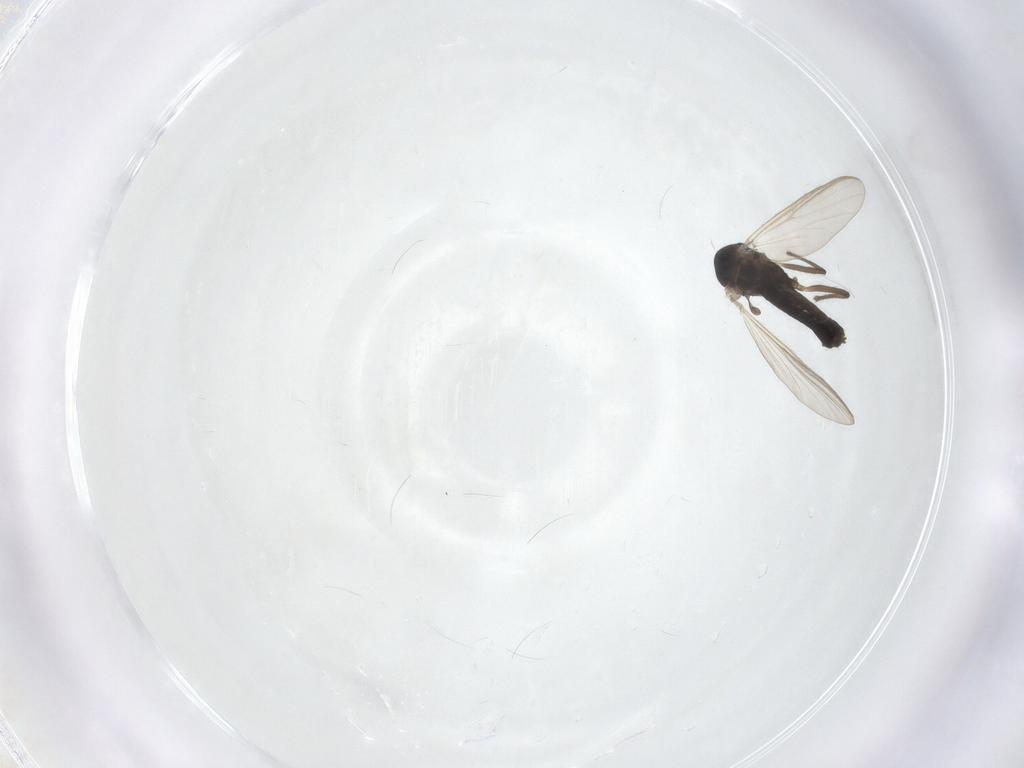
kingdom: Animalia
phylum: Arthropoda
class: Insecta
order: Diptera
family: Chironomidae
